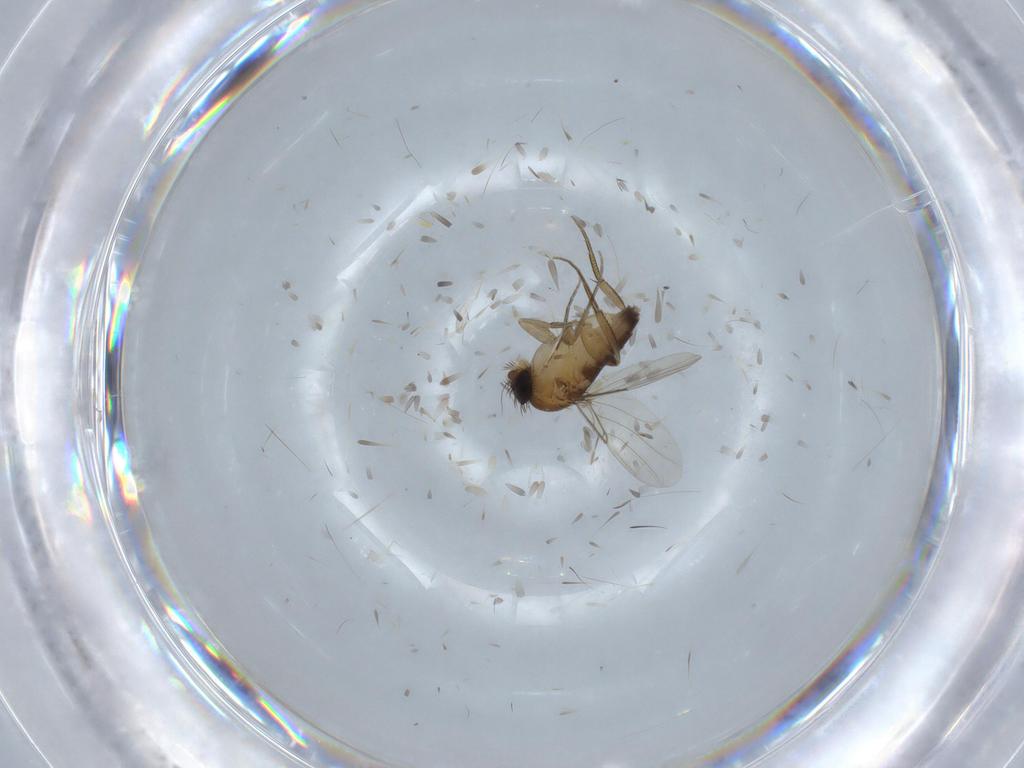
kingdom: Animalia
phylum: Arthropoda
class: Insecta
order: Diptera
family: Phoridae
